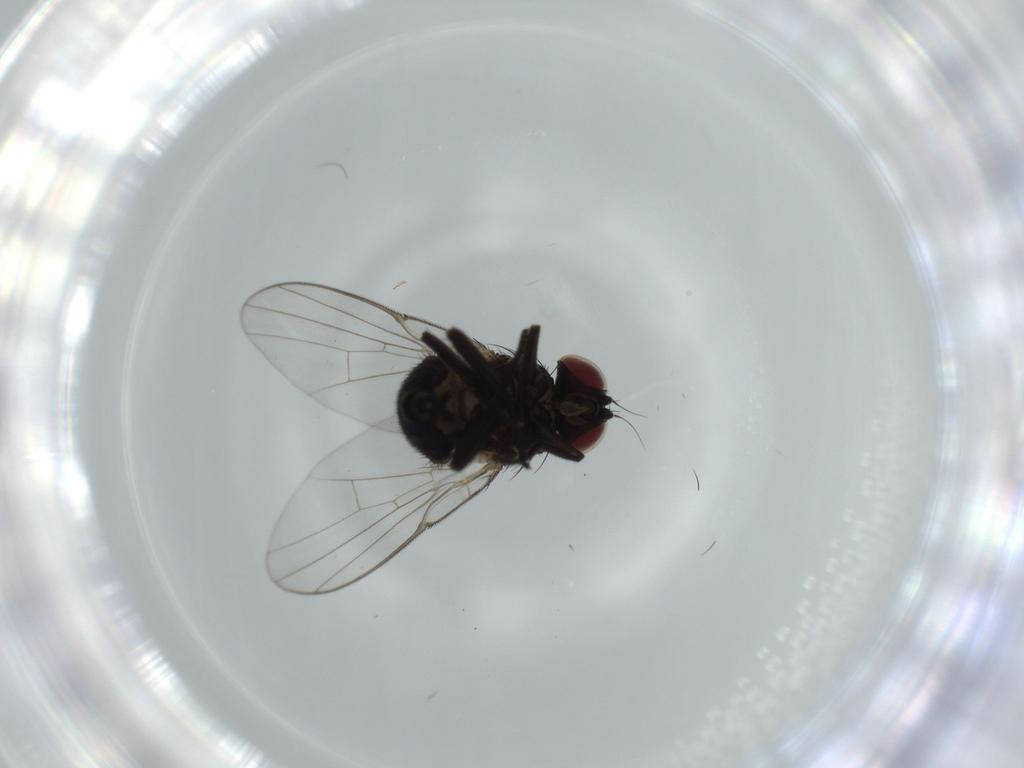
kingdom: Animalia
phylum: Arthropoda
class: Insecta
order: Diptera
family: Agromyzidae
